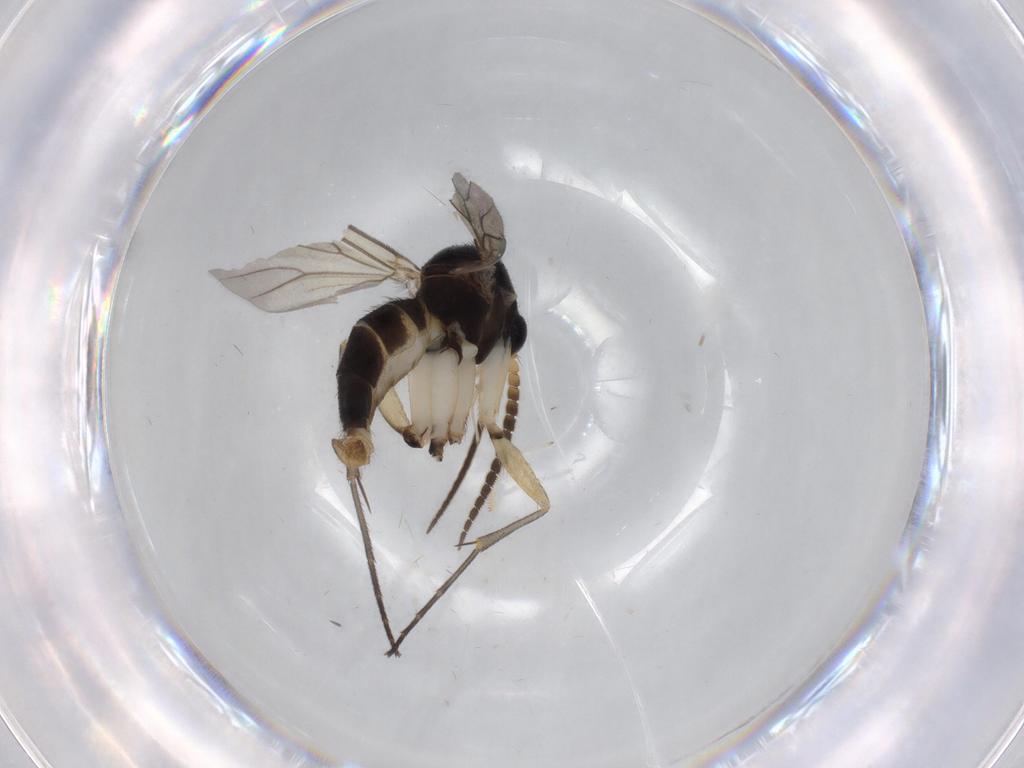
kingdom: Animalia
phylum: Arthropoda
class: Insecta
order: Diptera
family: Psychodidae
